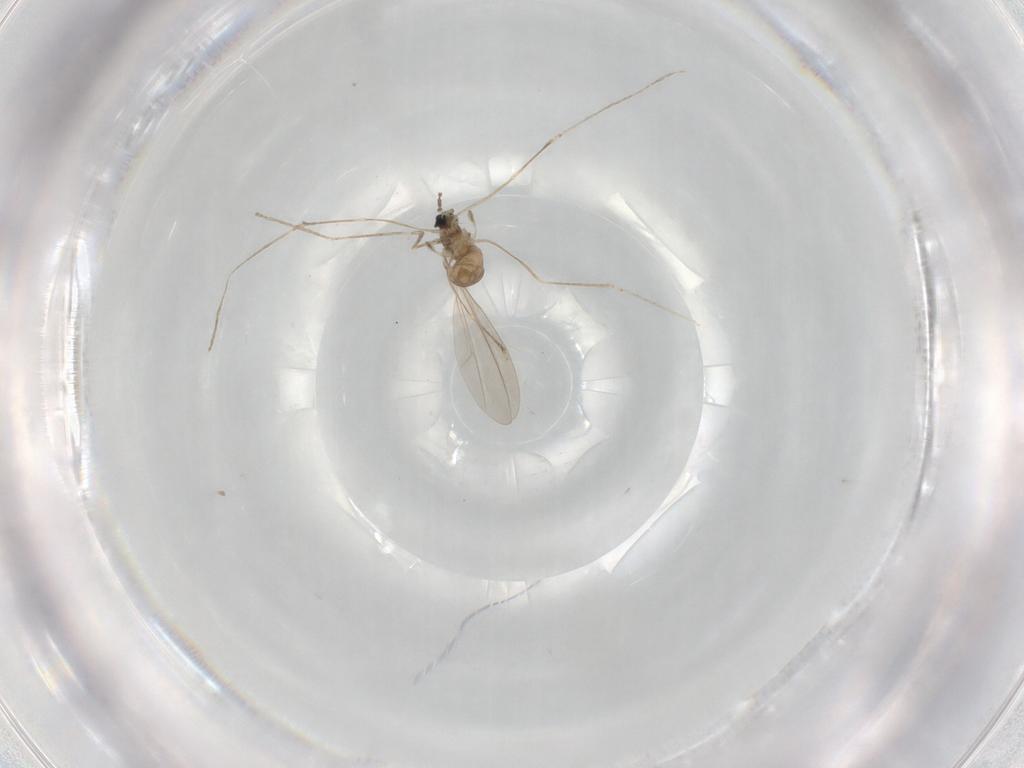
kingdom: Animalia
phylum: Arthropoda
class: Insecta
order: Diptera
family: Cecidomyiidae
